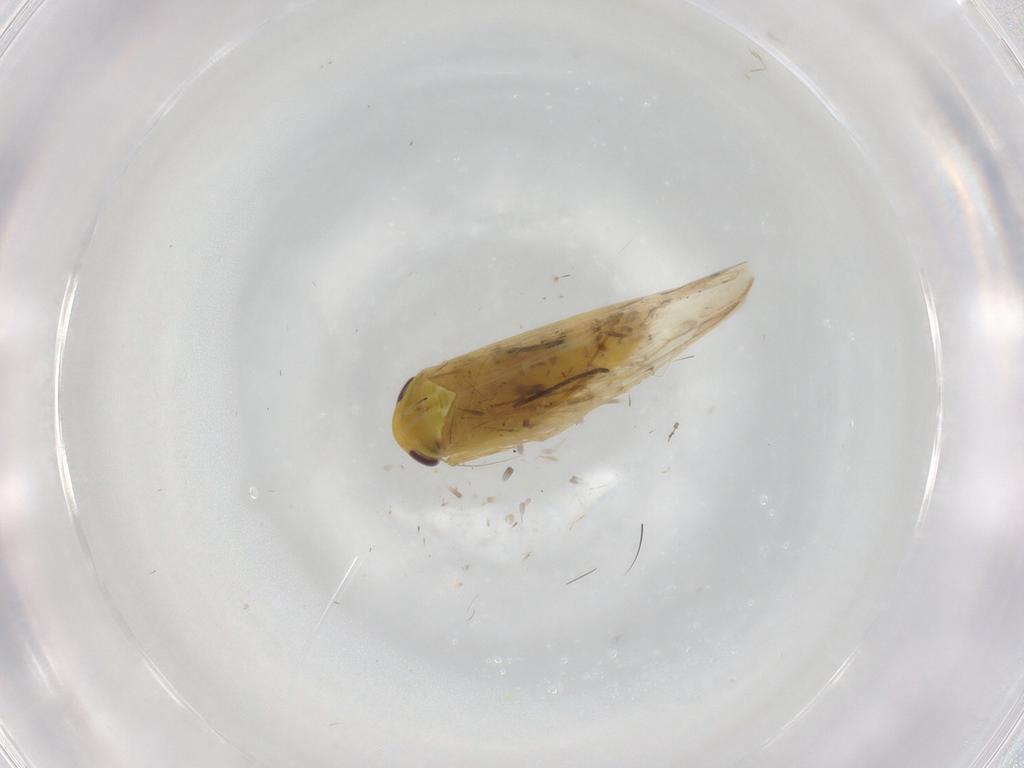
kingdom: Animalia
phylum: Arthropoda
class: Insecta
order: Hemiptera
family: Cicadellidae
